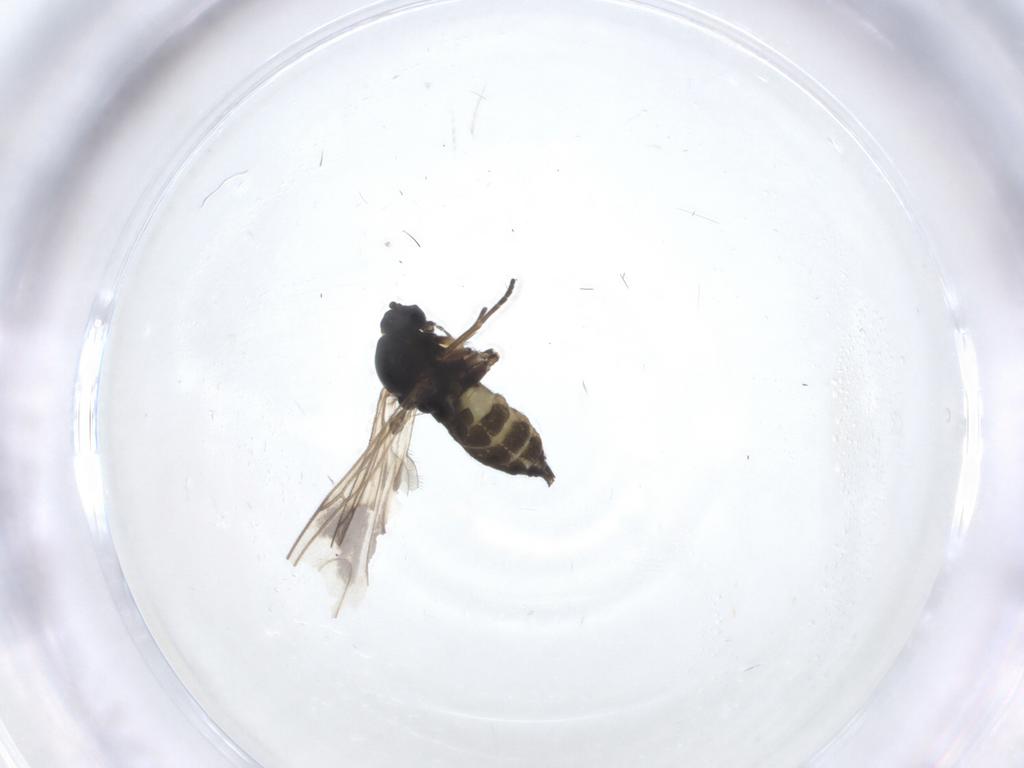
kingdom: Animalia
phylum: Arthropoda
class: Insecta
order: Diptera
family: Sciaridae
